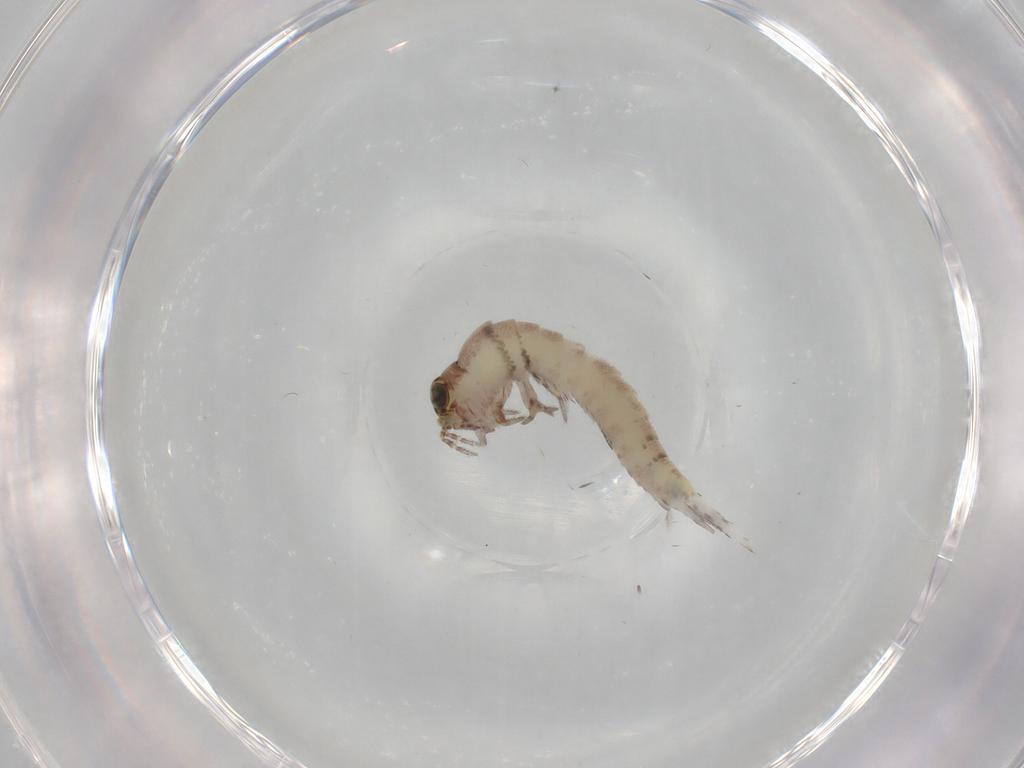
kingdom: Animalia
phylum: Arthropoda
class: Insecta
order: Archaeognatha
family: Machilidae
